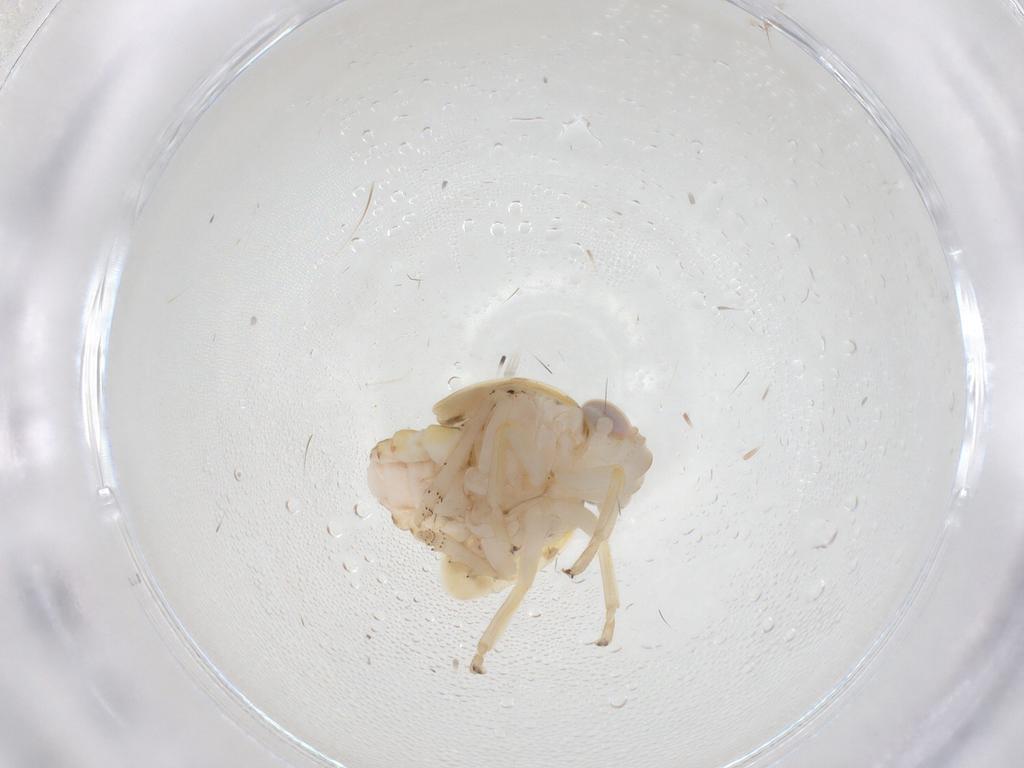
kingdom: Animalia
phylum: Arthropoda
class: Insecta
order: Hemiptera
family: Nogodinidae
